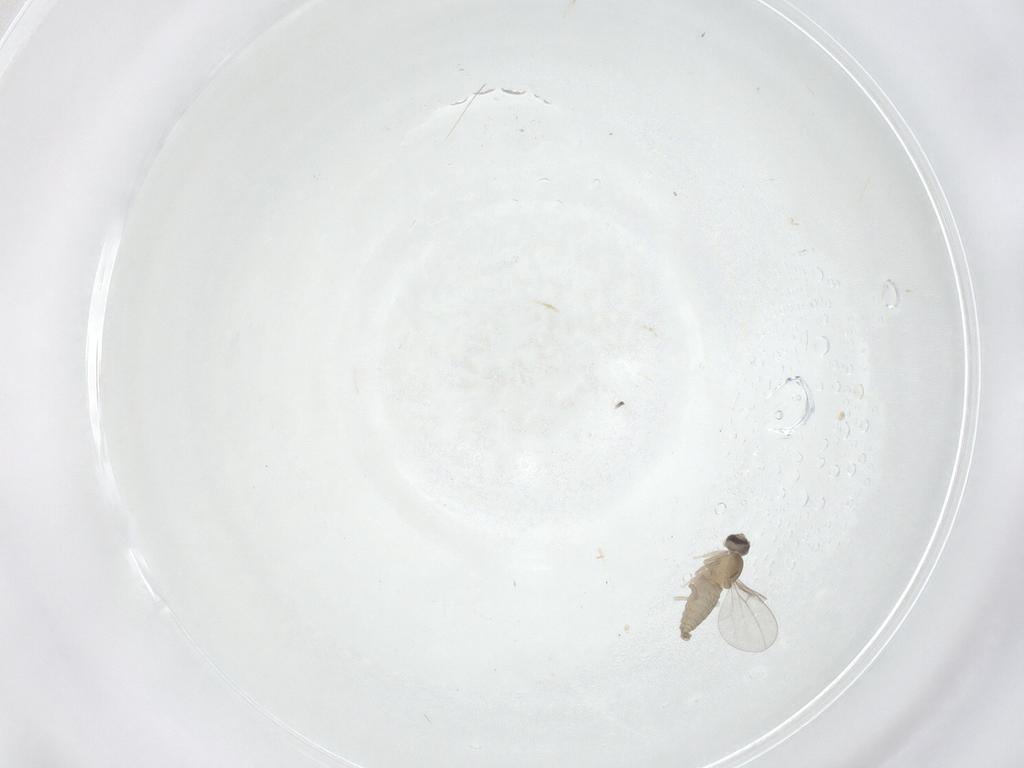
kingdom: Animalia
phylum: Arthropoda
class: Insecta
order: Diptera
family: Cecidomyiidae
